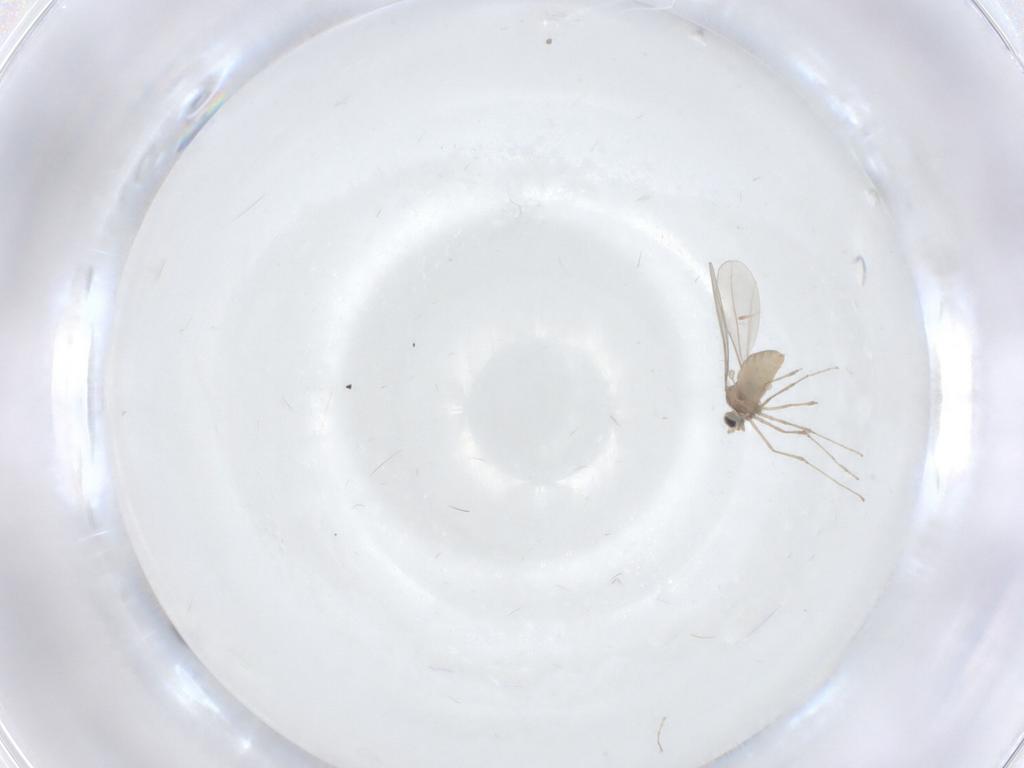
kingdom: Animalia
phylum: Arthropoda
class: Insecta
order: Diptera
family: Cecidomyiidae
